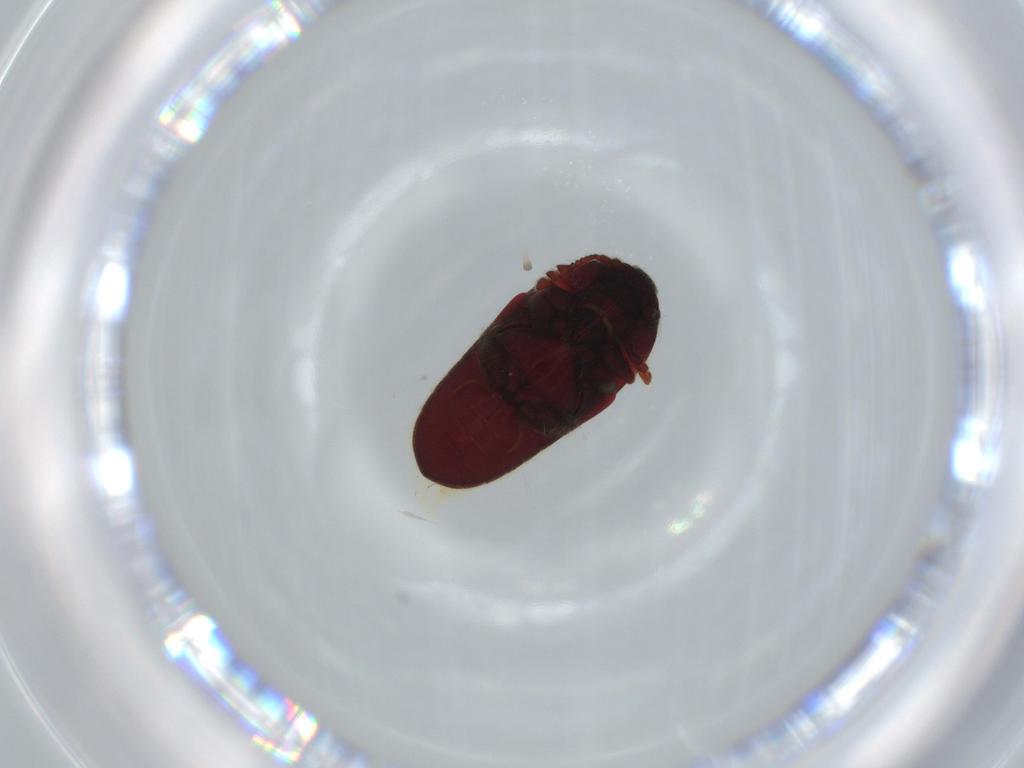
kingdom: Animalia
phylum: Arthropoda
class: Insecta
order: Coleoptera
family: Throscidae
